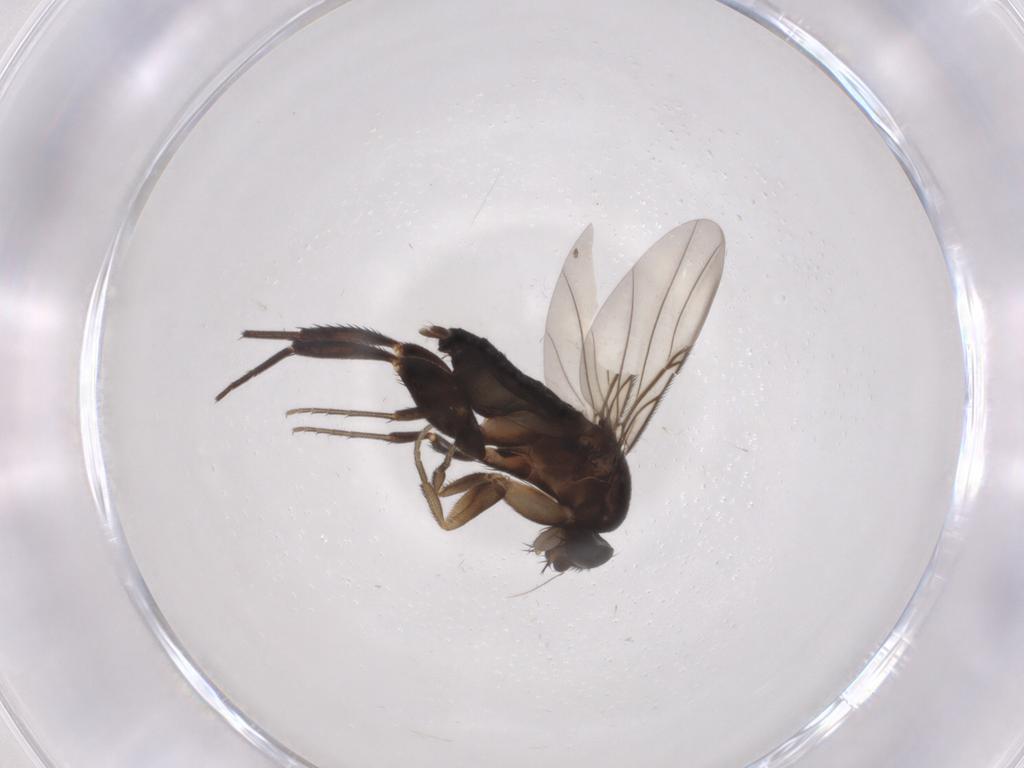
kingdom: Animalia
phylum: Arthropoda
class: Insecta
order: Diptera
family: Phoridae
